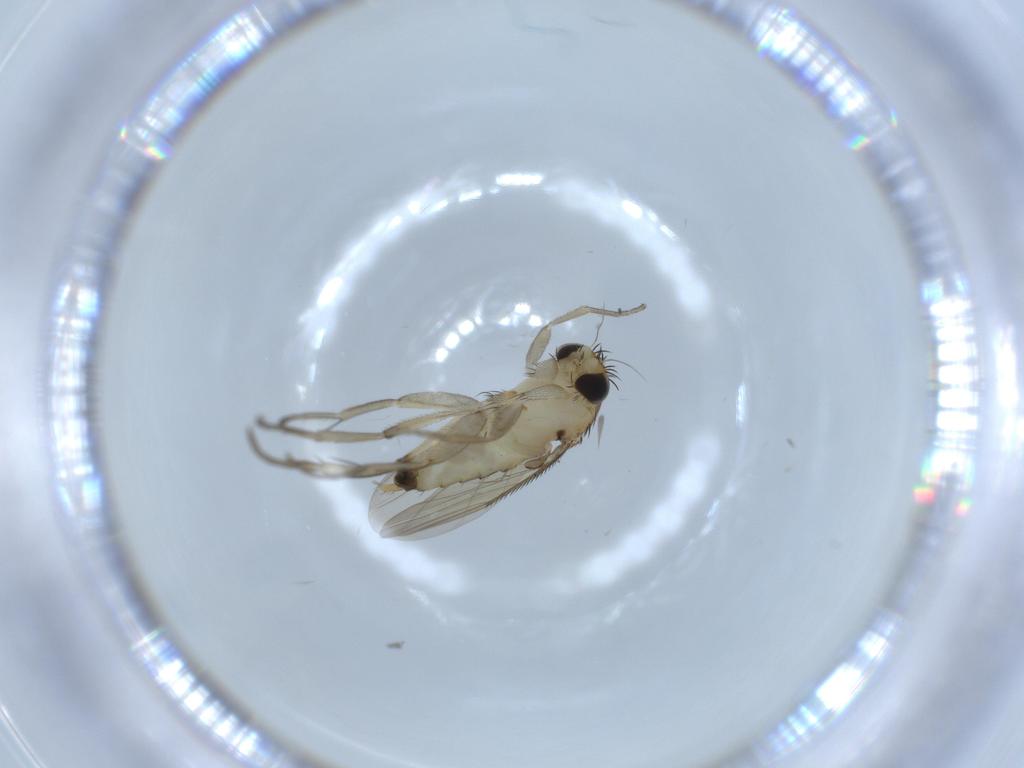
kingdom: Animalia
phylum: Arthropoda
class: Insecta
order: Diptera
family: Phoridae
